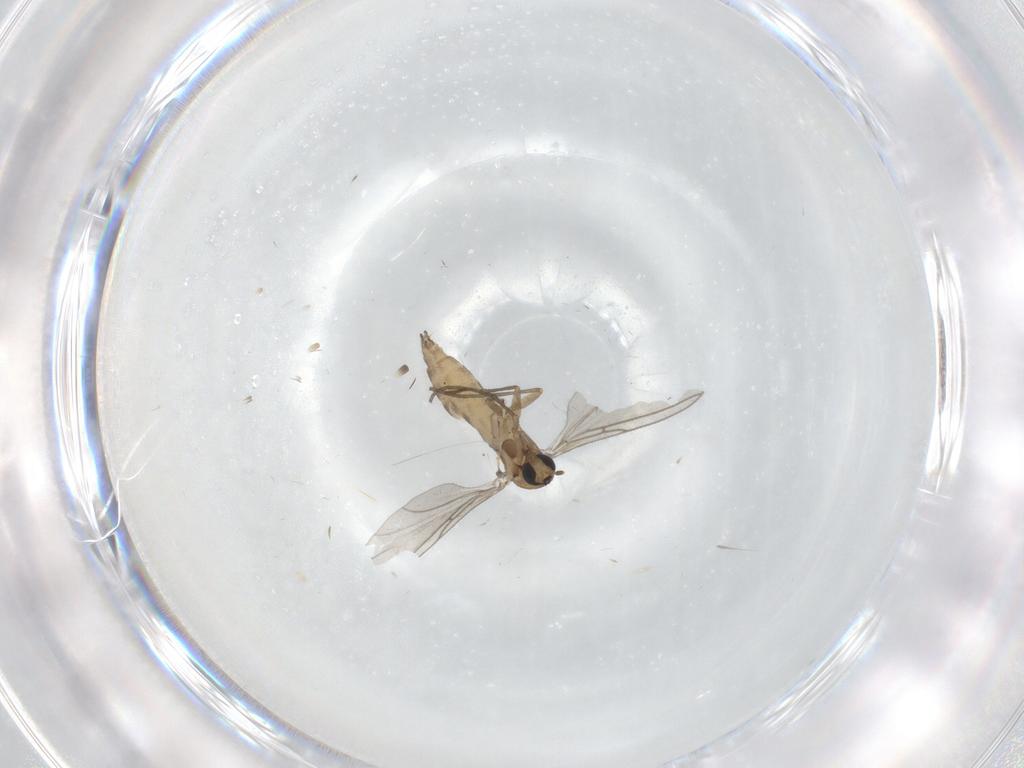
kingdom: Animalia
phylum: Arthropoda
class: Insecta
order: Diptera
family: Sciaridae
